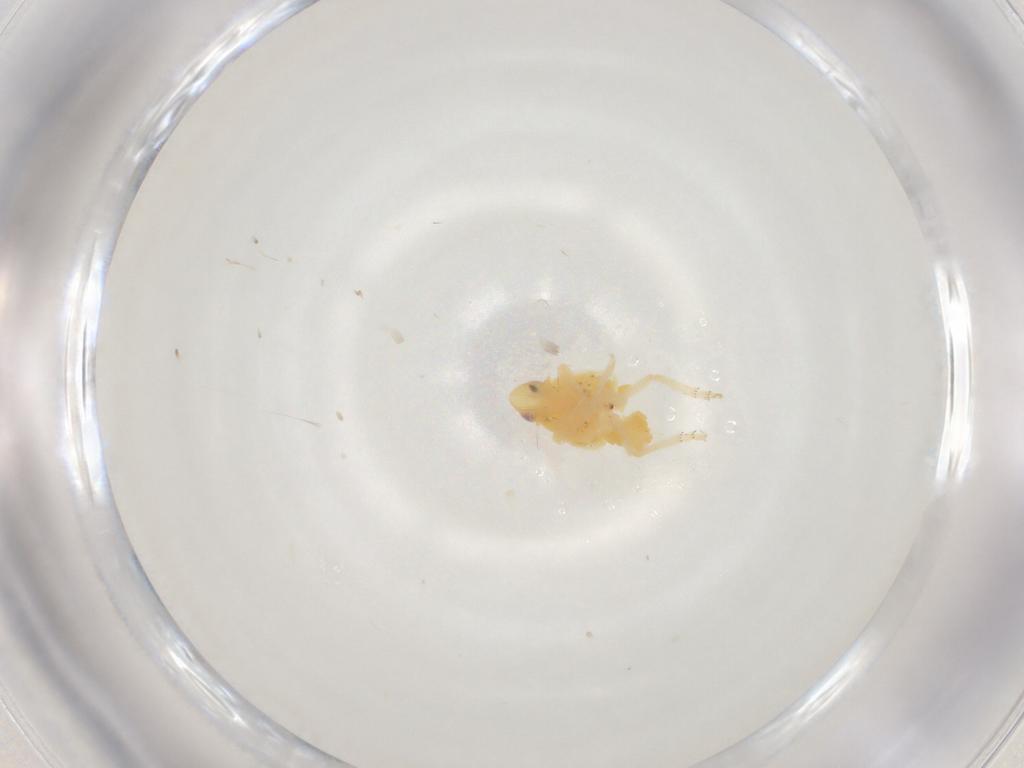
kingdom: Animalia
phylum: Arthropoda
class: Insecta
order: Hemiptera
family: Tropiduchidae
